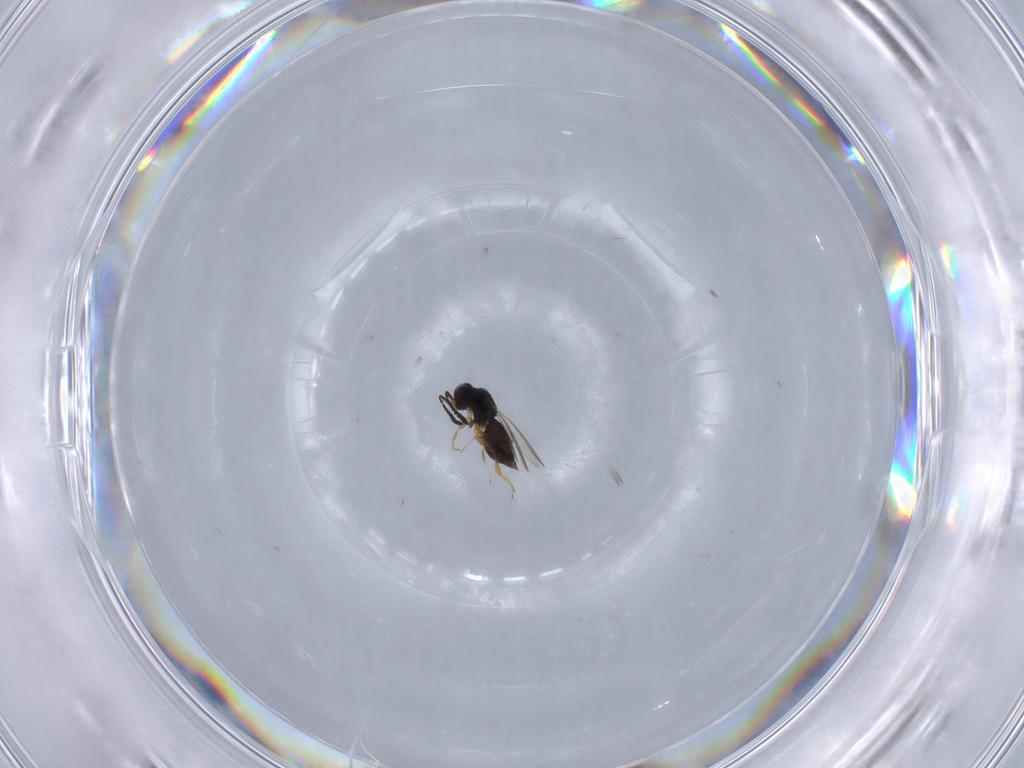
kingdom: Animalia
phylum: Arthropoda
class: Insecta
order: Hymenoptera
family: Ceraphronidae
